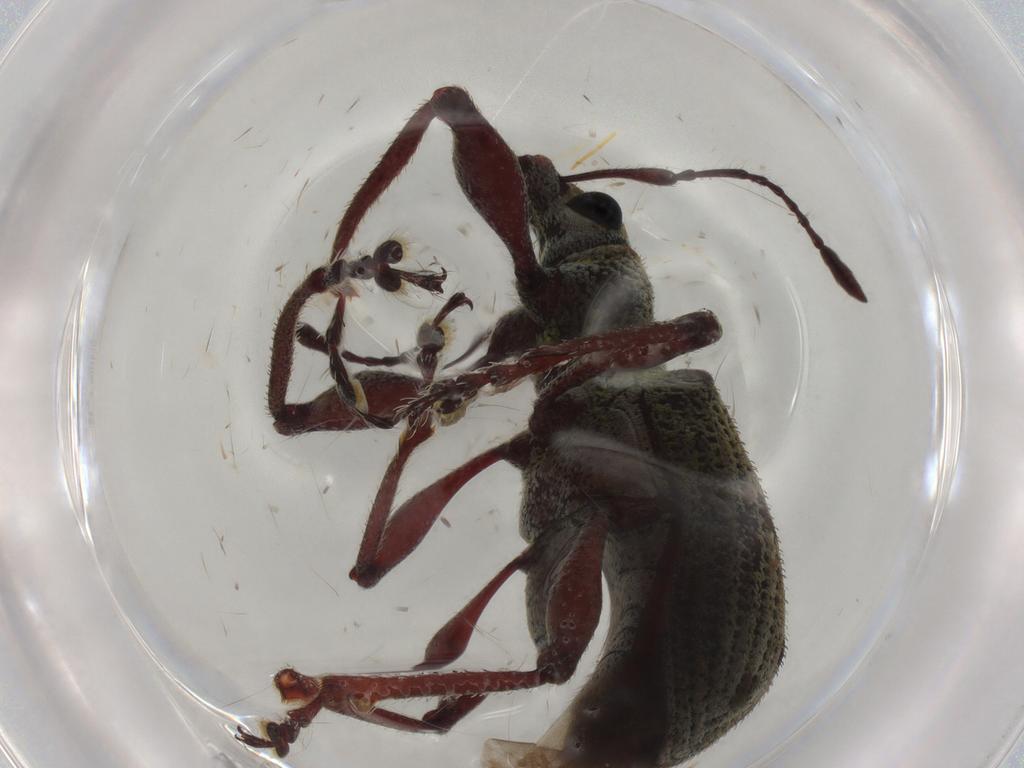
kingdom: Animalia
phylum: Arthropoda
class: Insecta
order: Coleoptera
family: Curculionidae
